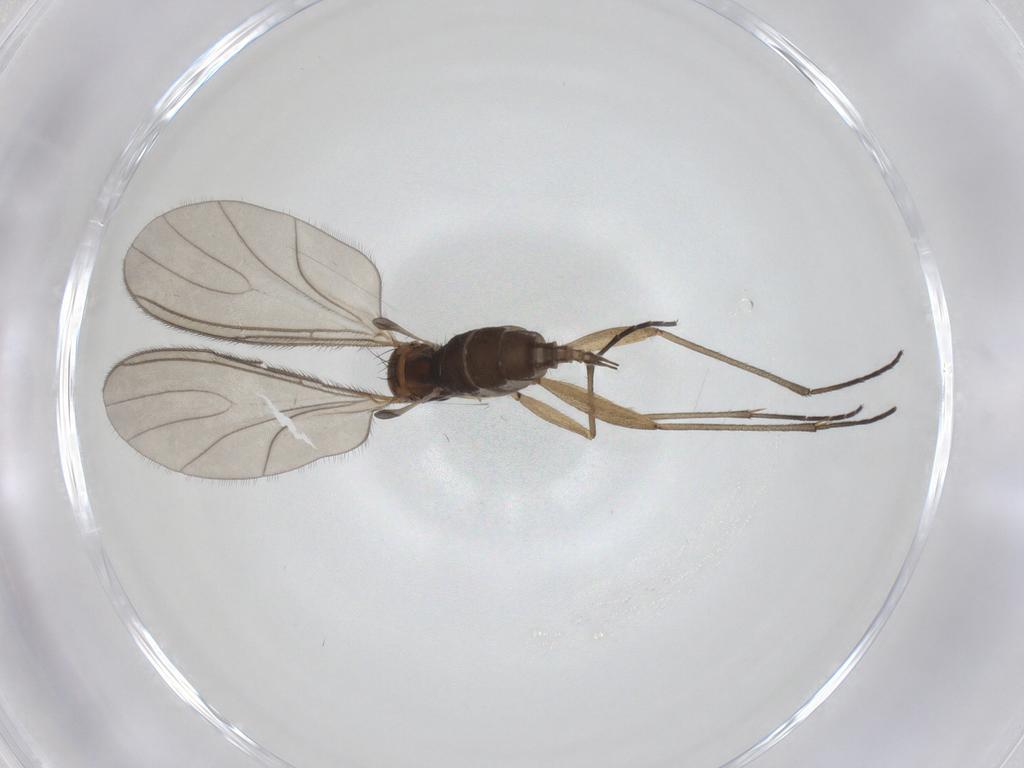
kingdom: Animalia
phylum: Arthropoda
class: Insecta
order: Diptera
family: Sciaridae
